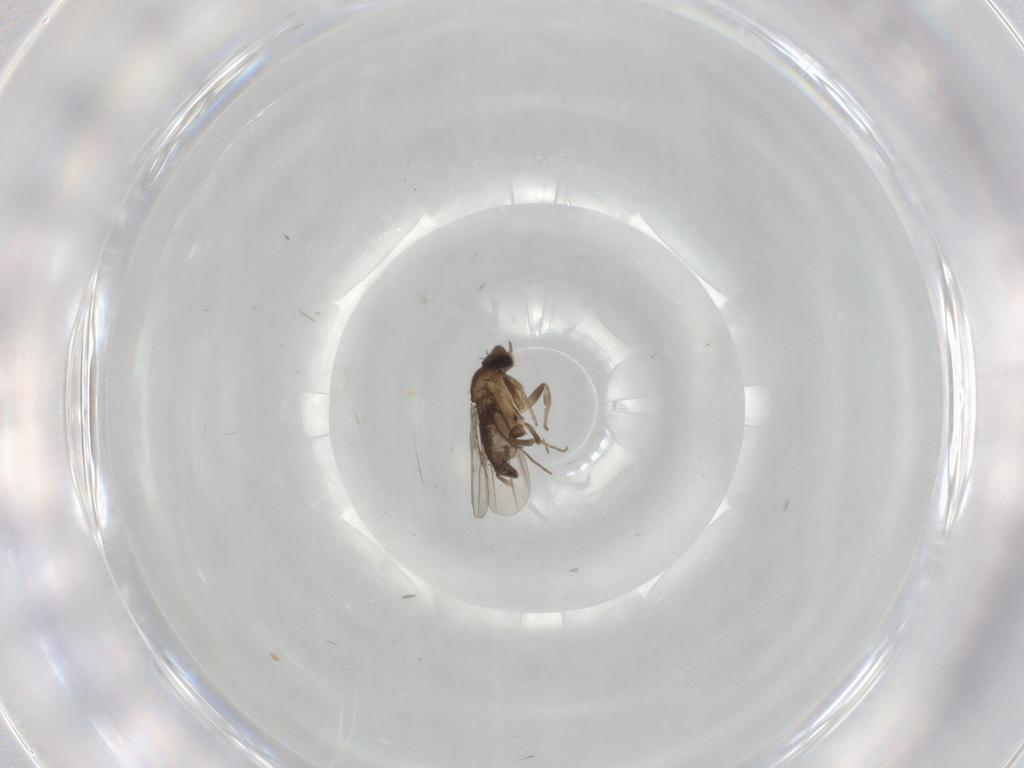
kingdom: Animalia
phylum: Arthropoda
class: Insecta
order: Diptera
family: Phoridae
